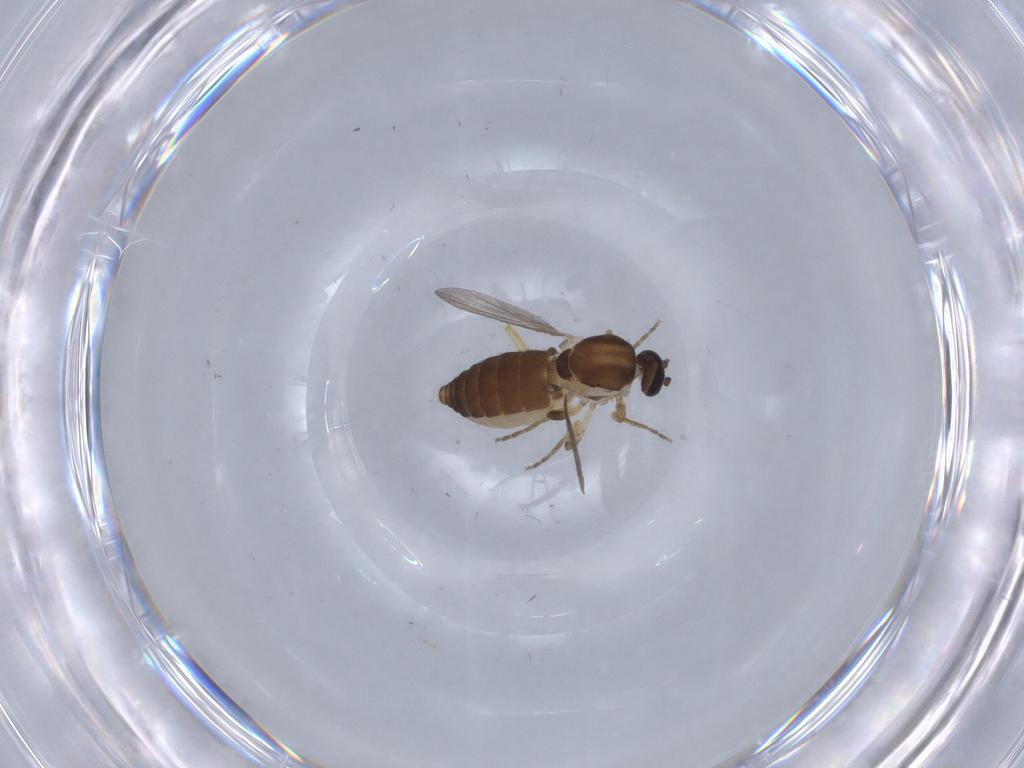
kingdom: Animalia
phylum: Arthropoda
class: Insecta
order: Diptera
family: Ceratopogonidae
